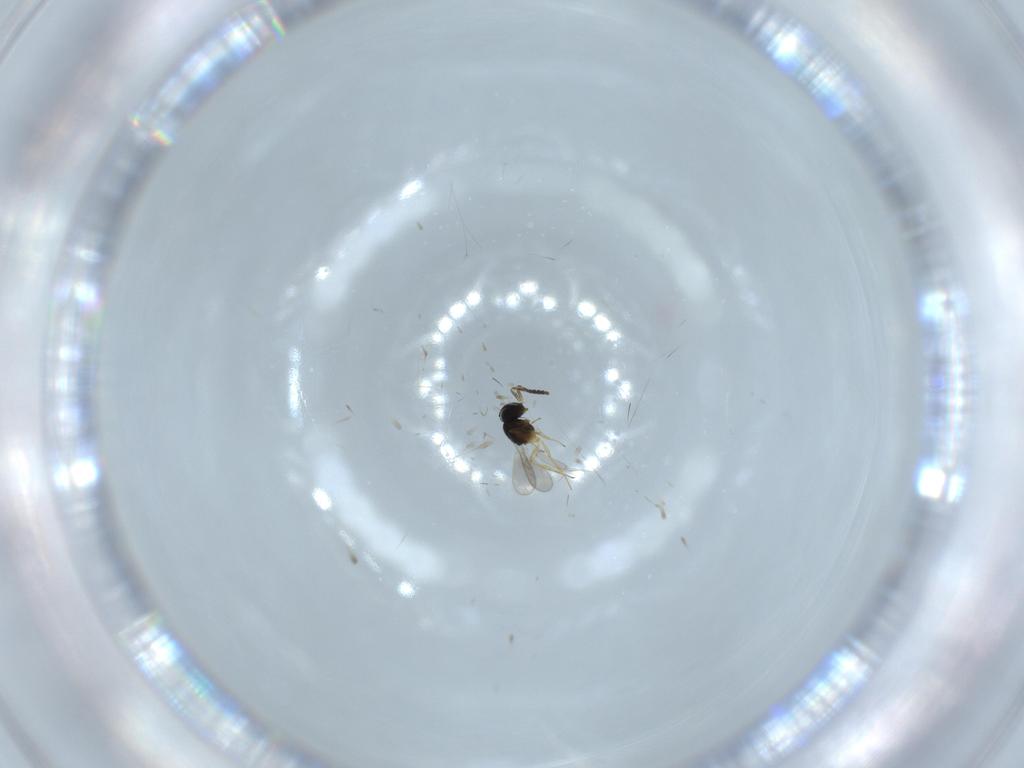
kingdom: Animalia
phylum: Arthropoda
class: Insecta
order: Hymenoptera
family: Scelionidae
